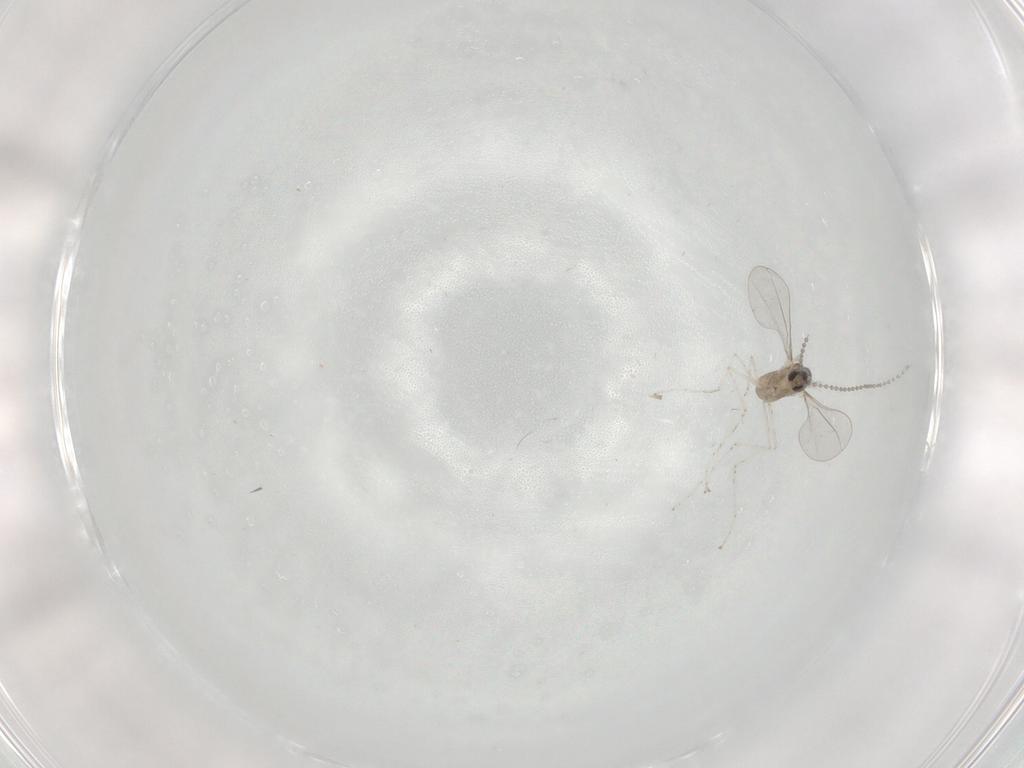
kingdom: Animalia
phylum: Arthropoda
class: Insecta
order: Diptera
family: Cecidomyiidae
